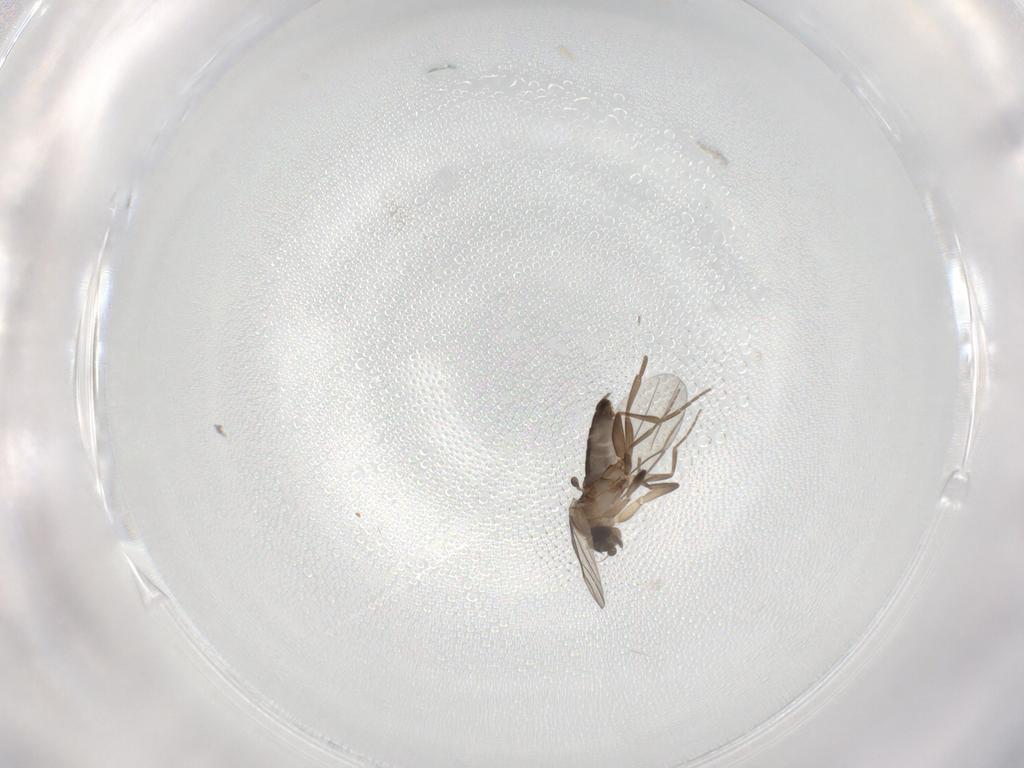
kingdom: Animalia
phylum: Arthropoda
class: Insecta
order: Diptera
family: Phoridae
